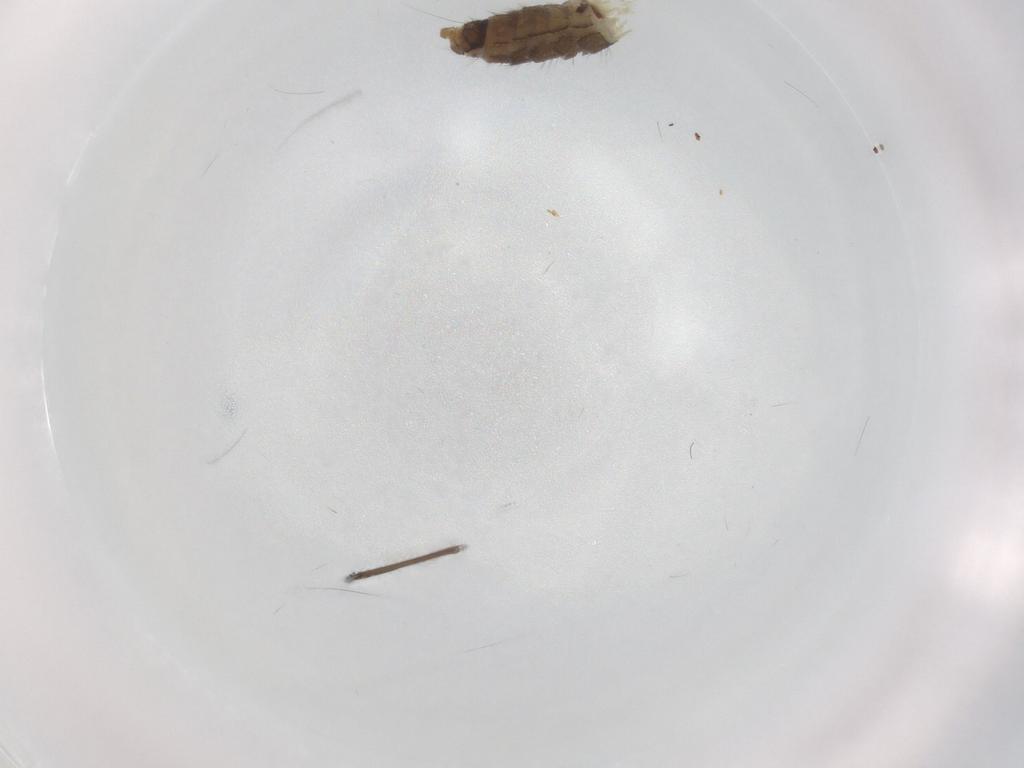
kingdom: Animalia
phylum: Arthropoda
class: Insecta
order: Diptera
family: Chironomidae
